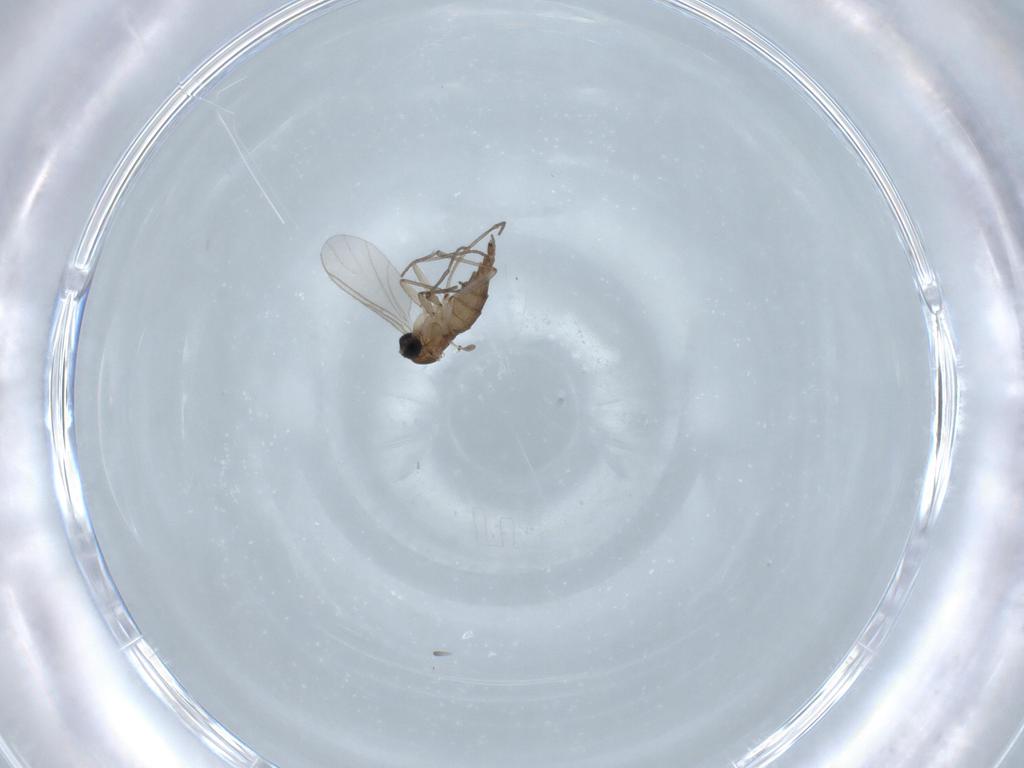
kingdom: Animalia
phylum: Arthropoda
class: Insecta
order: Diptera
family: Sciaridae
